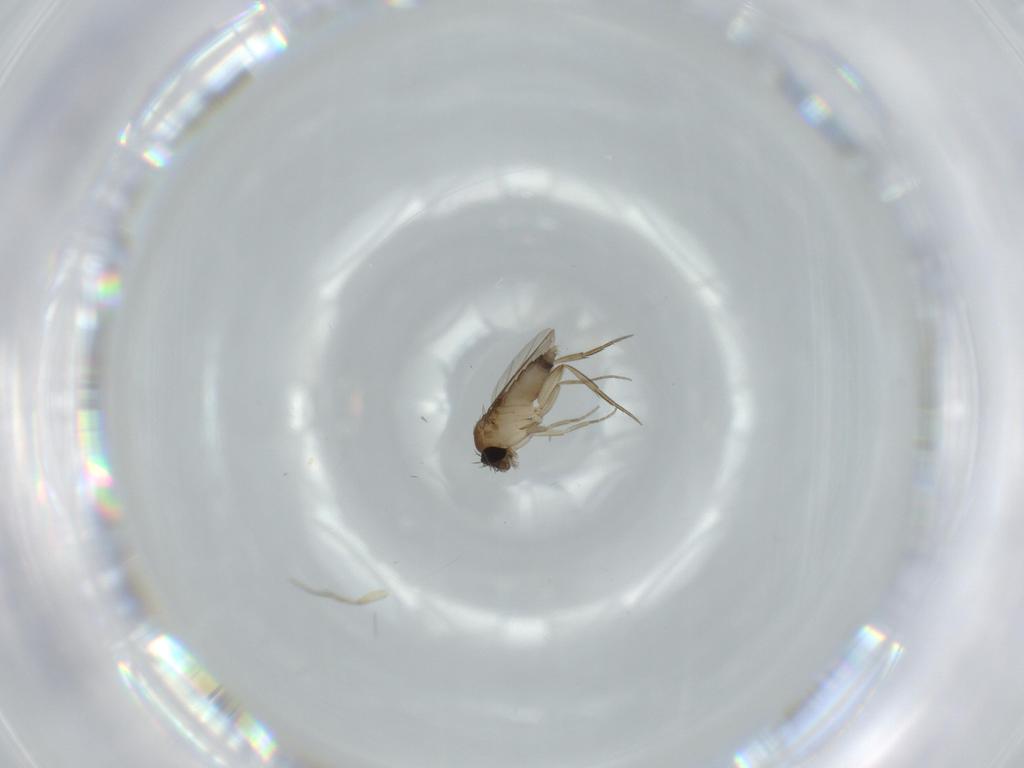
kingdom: Animalia
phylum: Arthropoda
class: Insecta
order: Diptera
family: Phoridae
